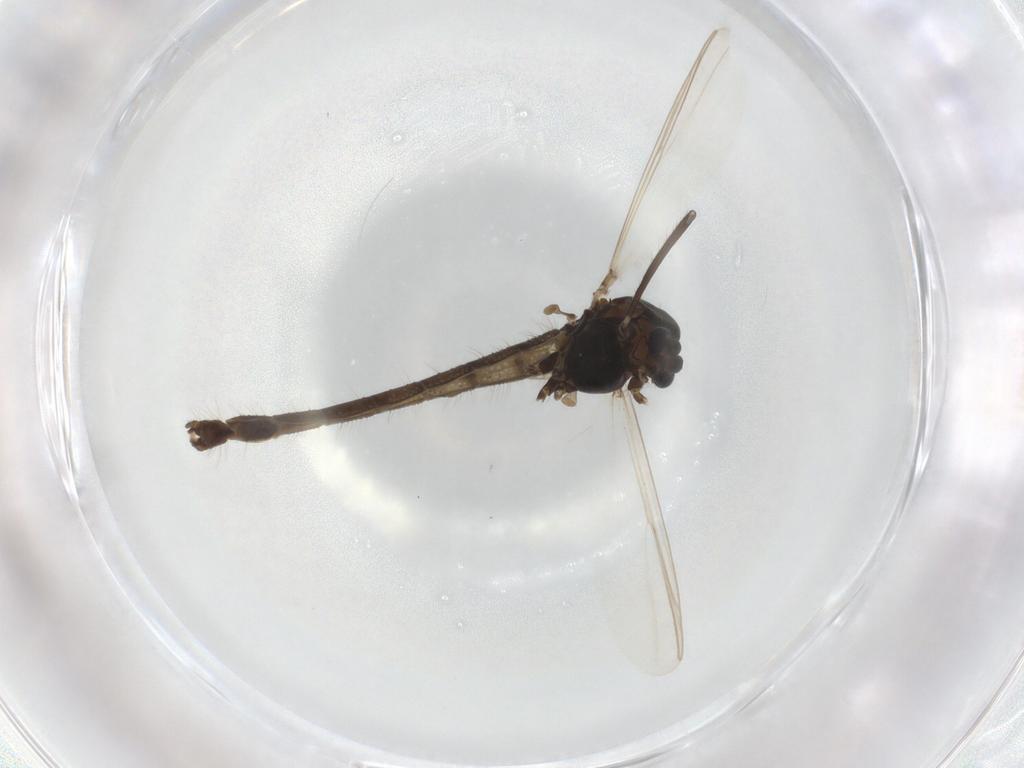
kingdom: Animalia
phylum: Arthropoda
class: Insecta
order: Diptera
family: Chironomidae
